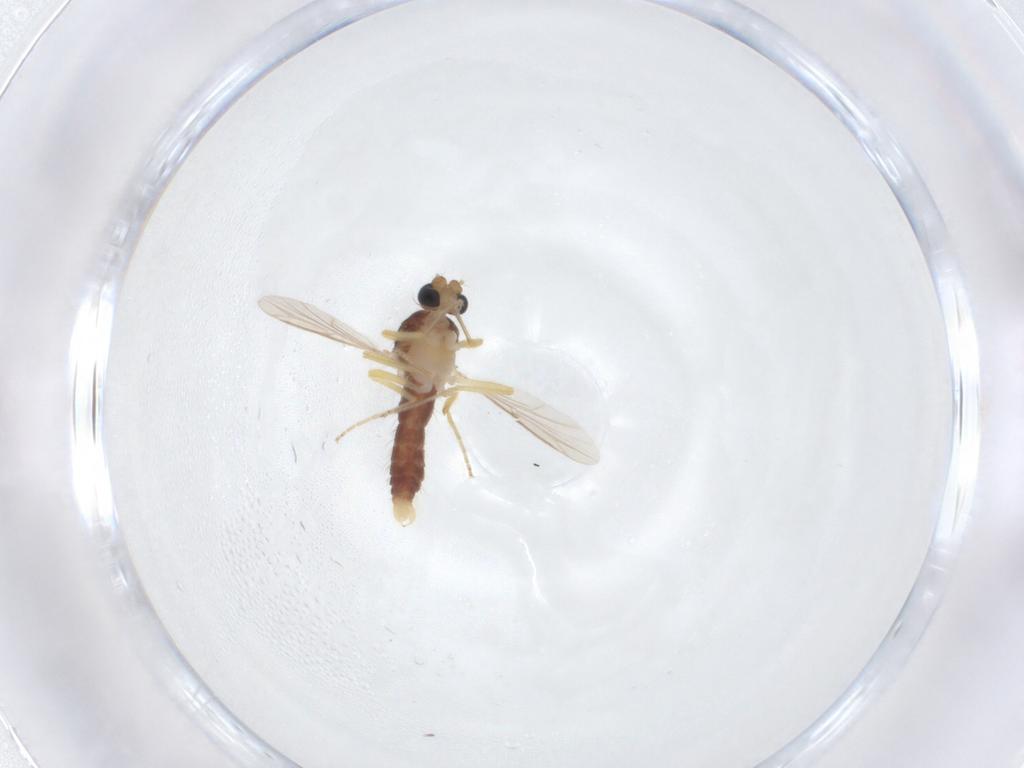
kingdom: Animalia
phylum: Arthropoda
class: Insecta
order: Diptera
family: Ceratopogonidae
